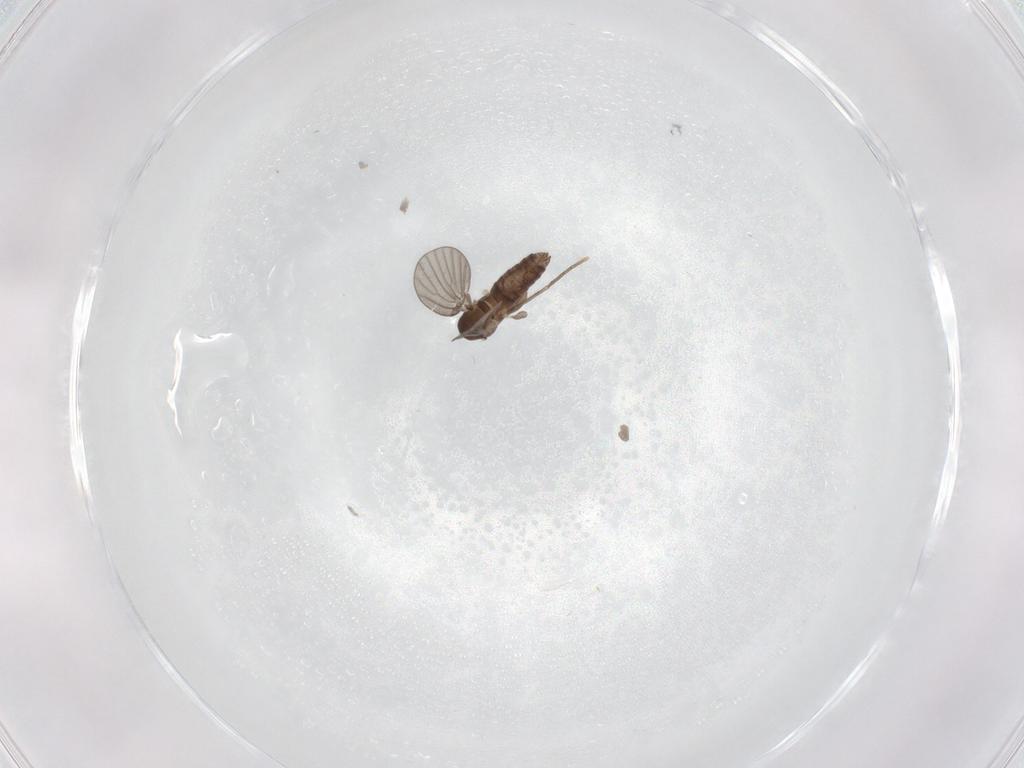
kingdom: Animalia
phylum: Arthropoda
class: Insecta
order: Diptera
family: Psychodidae
